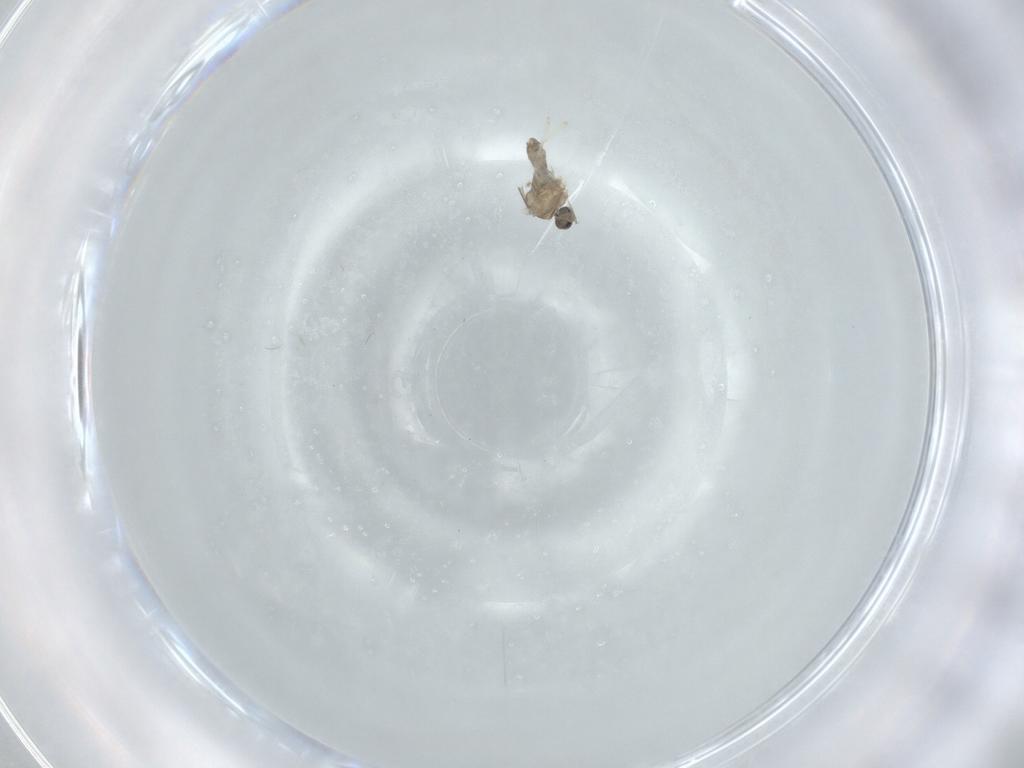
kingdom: Animalia
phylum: Arthropoda
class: Insecta
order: Diptera
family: Cecidomyiidae
